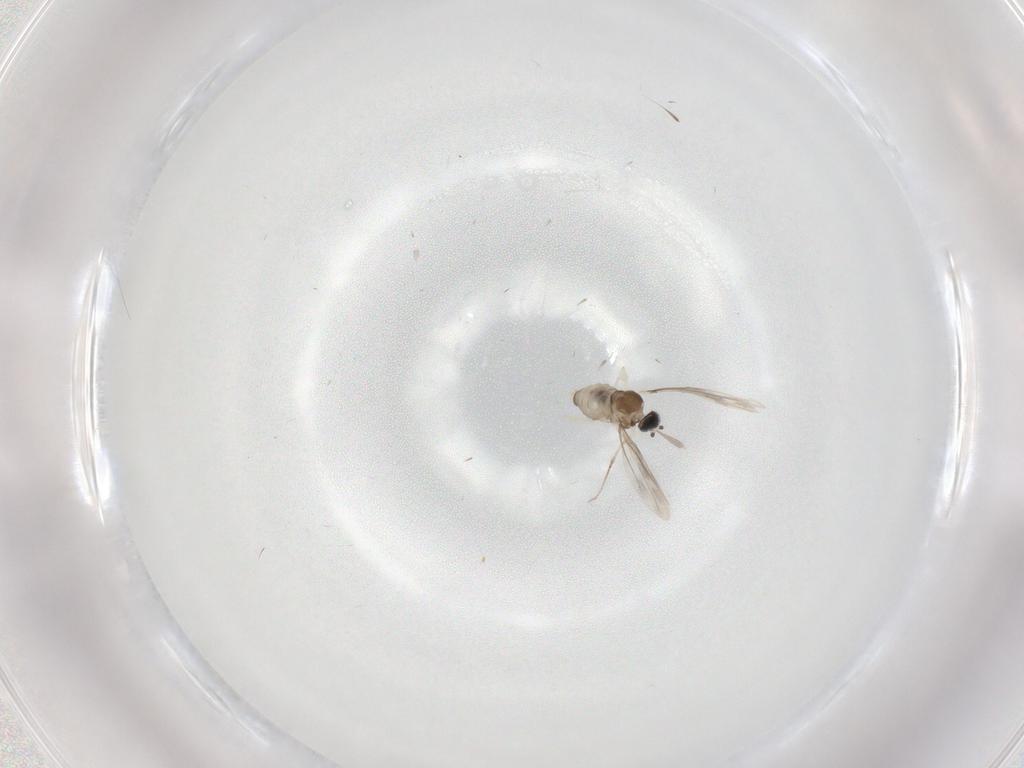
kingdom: Animalia
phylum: Arthropoda
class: Insecta
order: Diptera
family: Cecidomyiidae
